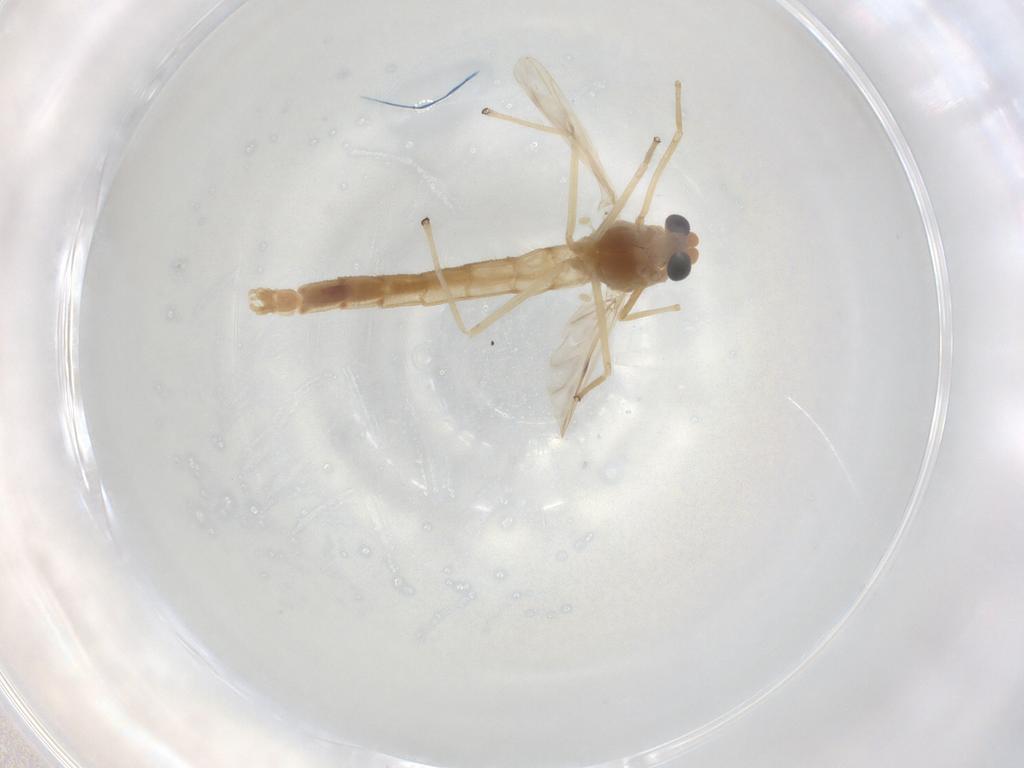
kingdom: Animalia
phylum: Arthropoda
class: Insecta
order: Diptera
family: Chironomidae
